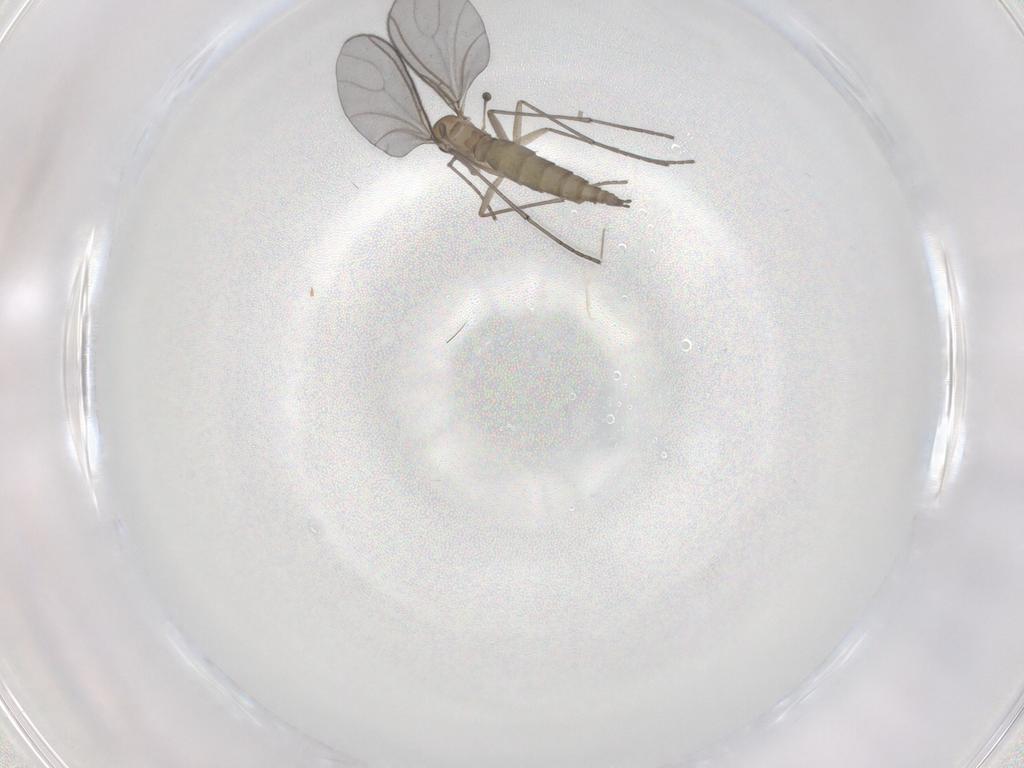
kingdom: Animalia
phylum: Arthropoda
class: Insecta
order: Diptera
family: Sciaridae
